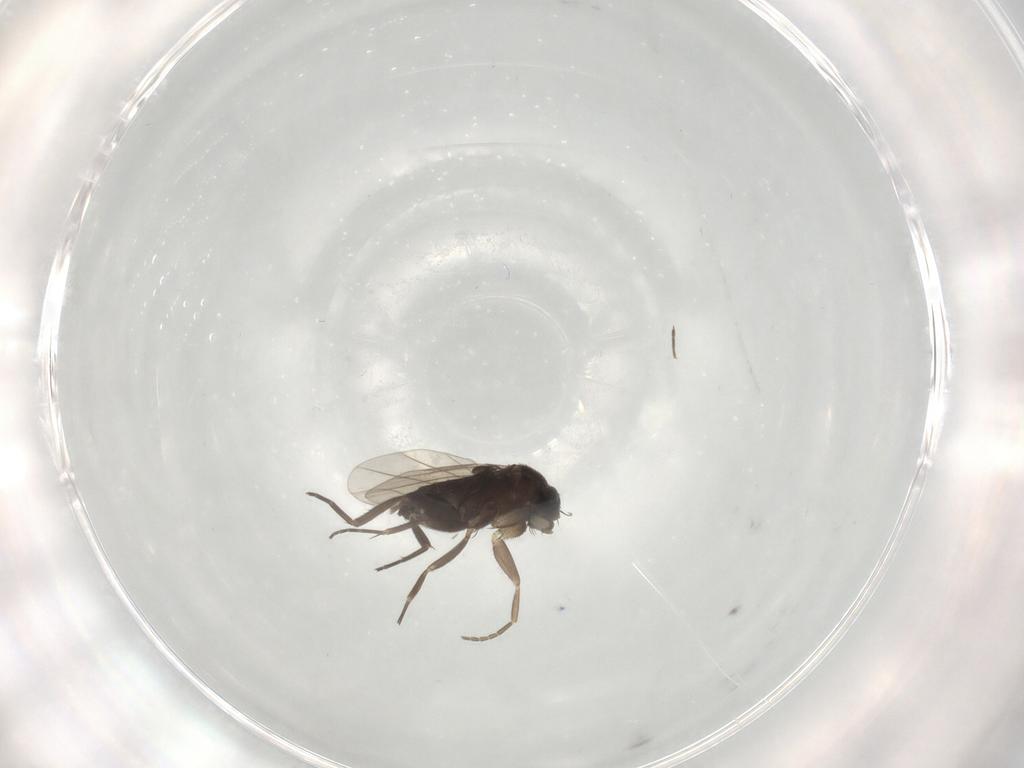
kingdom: Animalia
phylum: Arthropoda
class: Insecta
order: Diptera
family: Phoridae
